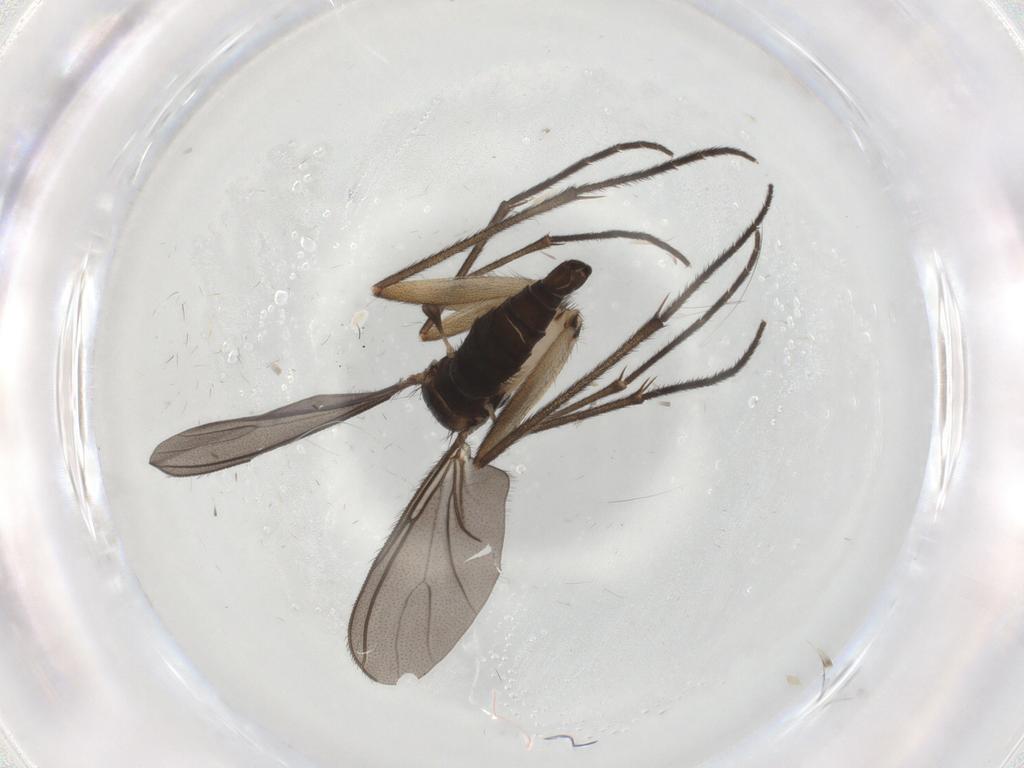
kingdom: Animalia
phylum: Arthropoda
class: Insecta
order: Diptera
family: Sciaridae
